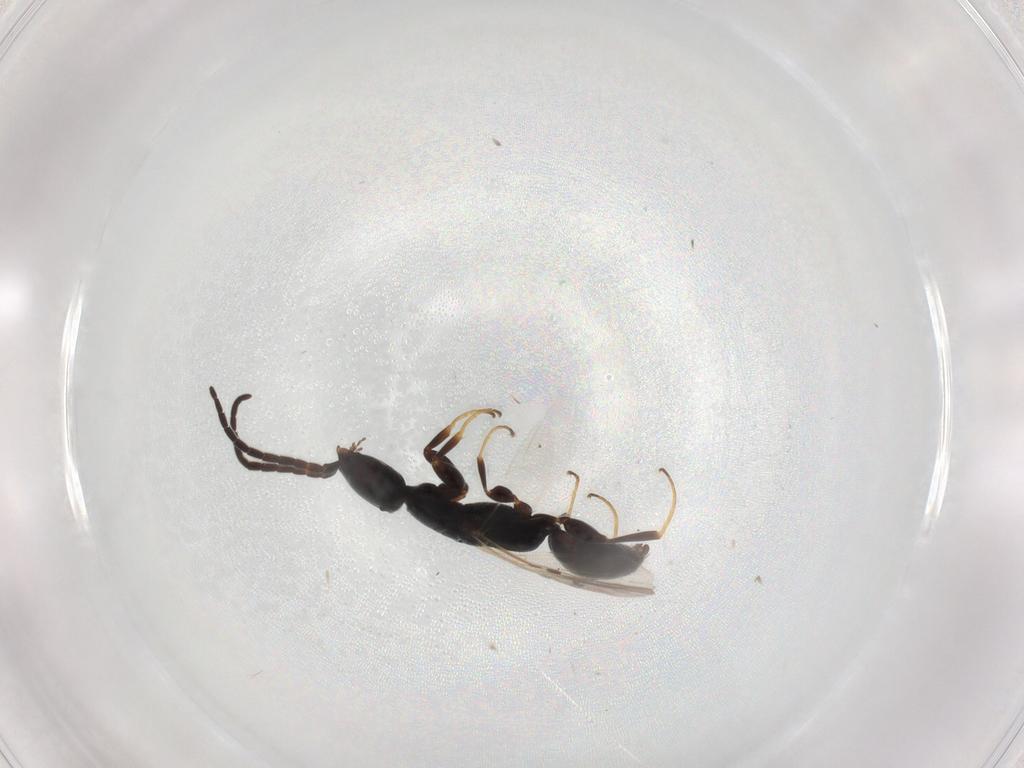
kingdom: Animalia
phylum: Arthropoda
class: Insecta
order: Hymenoptera
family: Bethylidae
